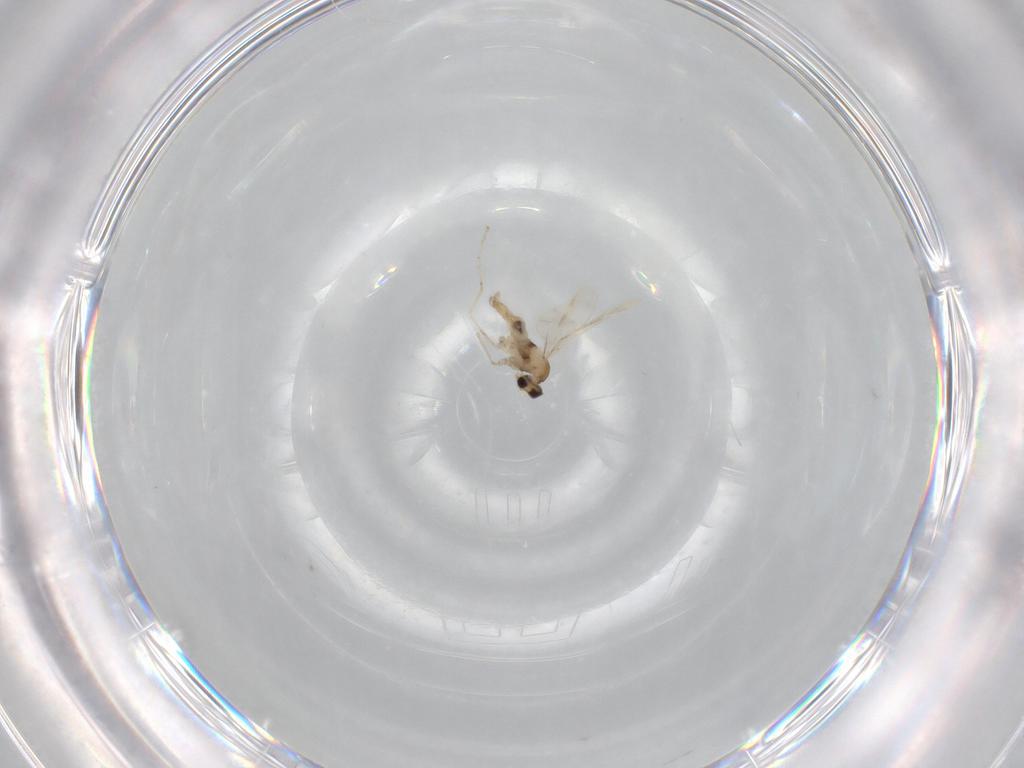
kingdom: Animalia
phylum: Arthropoda
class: Insecta
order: Diptera
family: Cecidomyiidae
